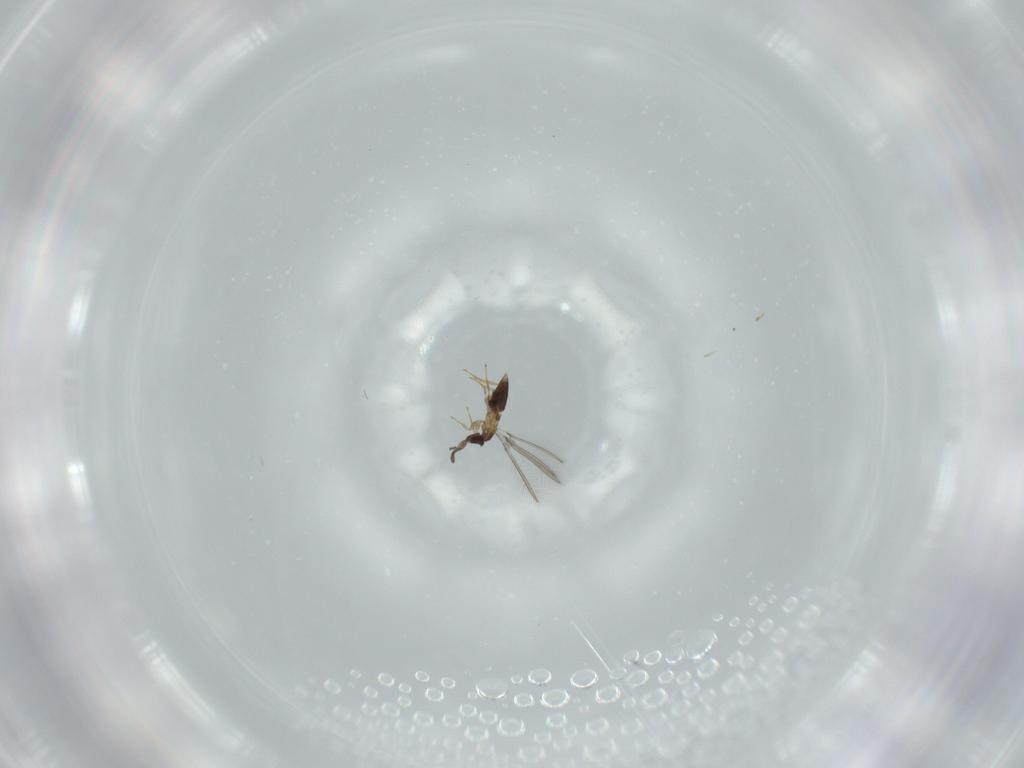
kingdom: Animalia
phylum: Arthropoda
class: Insecta
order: Hymenoptera
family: Mymaridae
